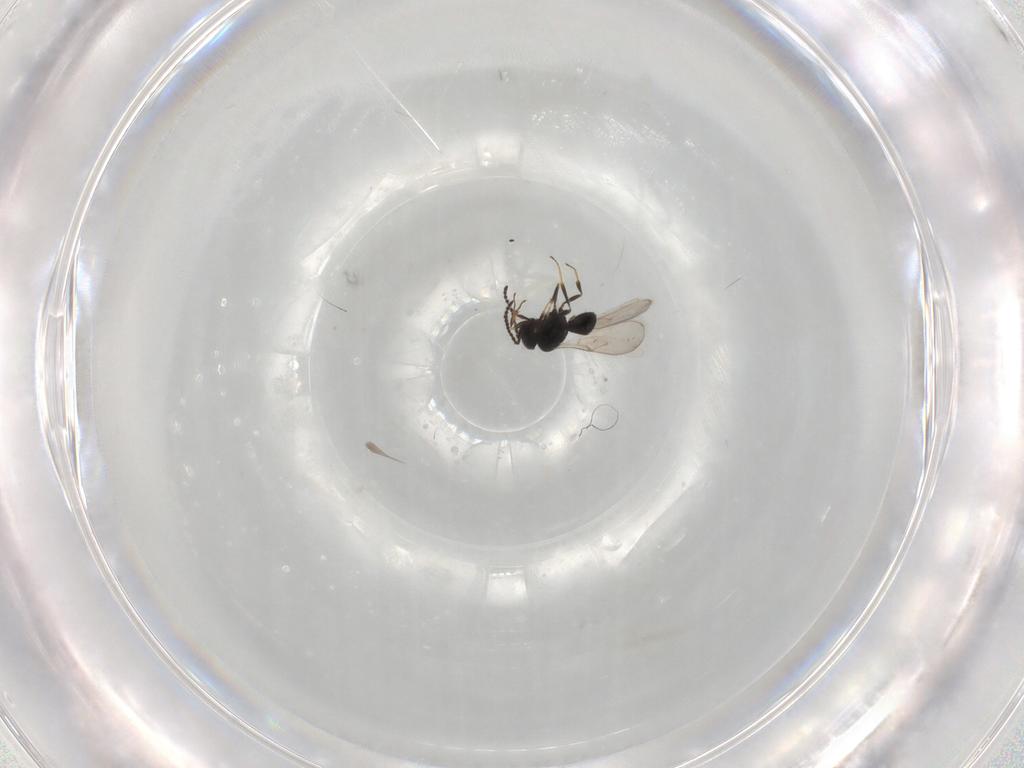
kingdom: Animalia
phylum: Arthropoda
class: Insecta
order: Hymenoptera
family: Scelionidae
